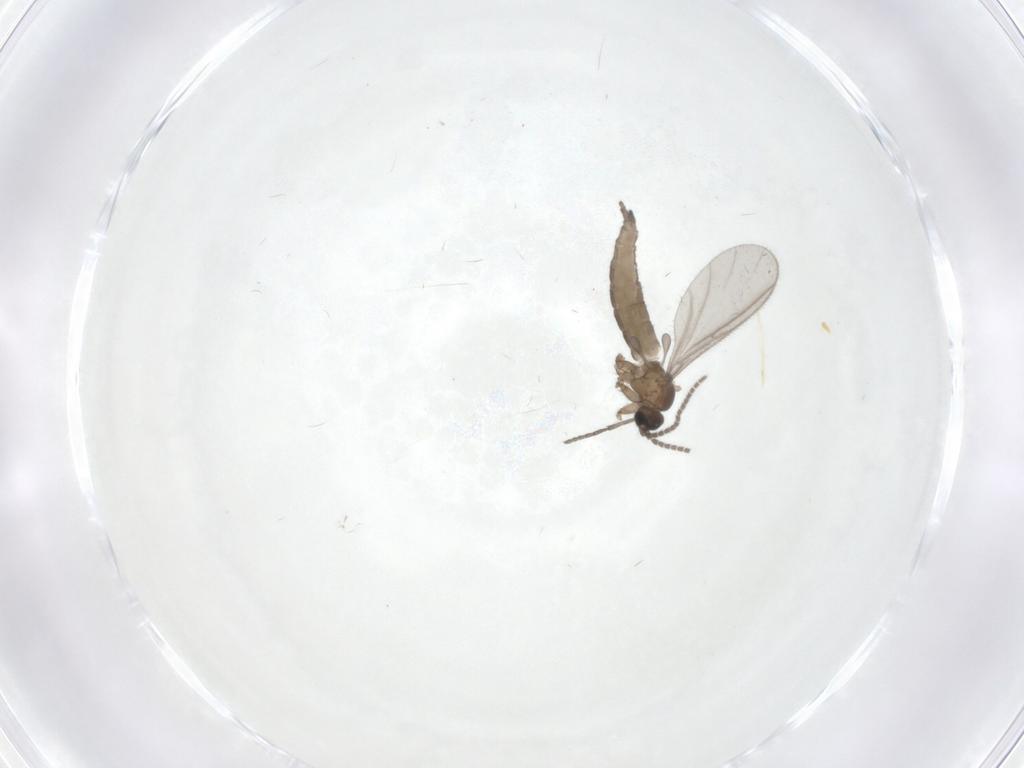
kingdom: Animalia
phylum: Arthropoda
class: Insecta
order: Diptera
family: Sciaridae
